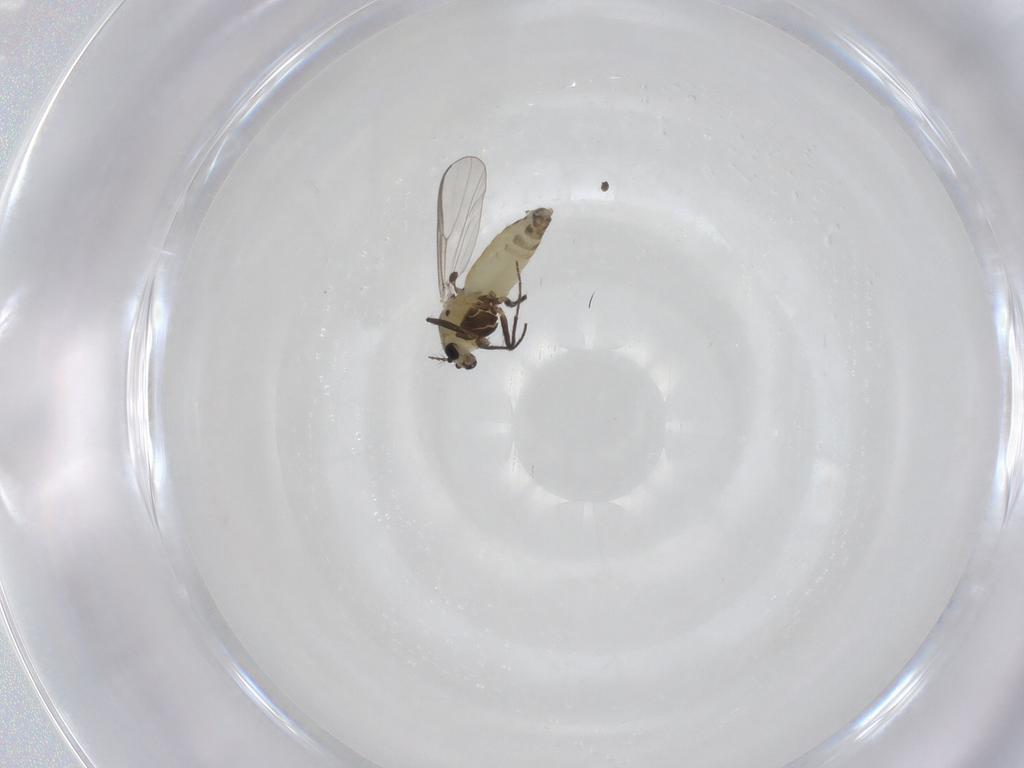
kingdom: Animalia
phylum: Arthropoda
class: Insecta
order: Diptera
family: Chironomidae
